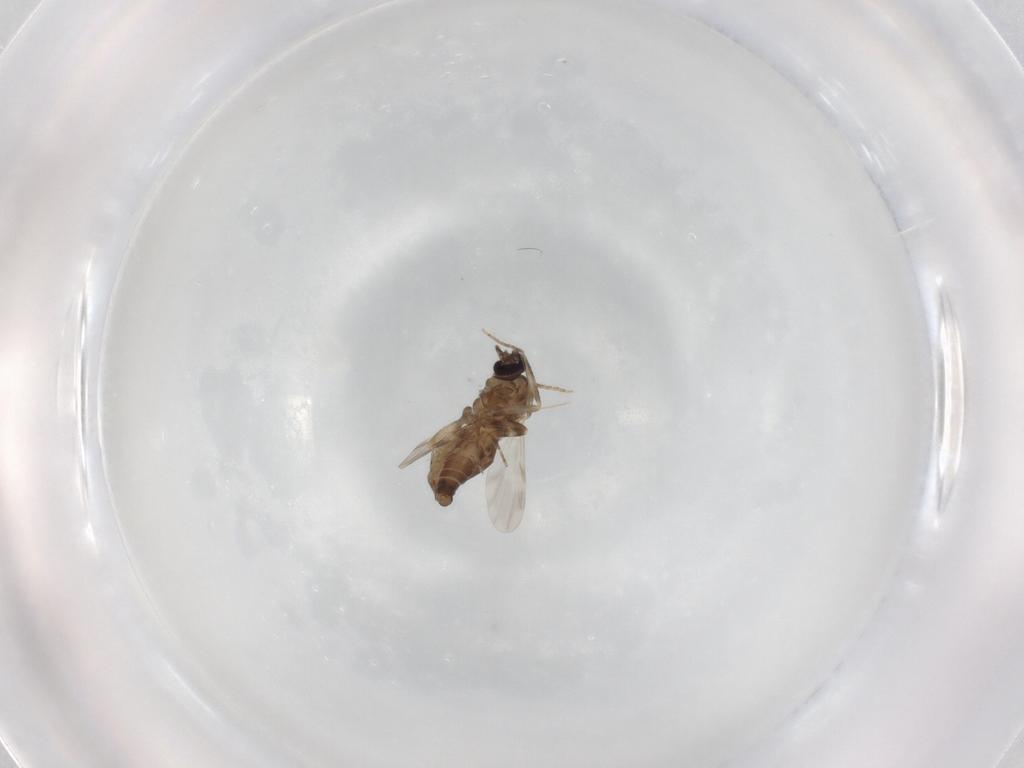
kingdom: Animalia
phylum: Arthropoda
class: Insecta
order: Diptera
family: Ceratopogonidae
